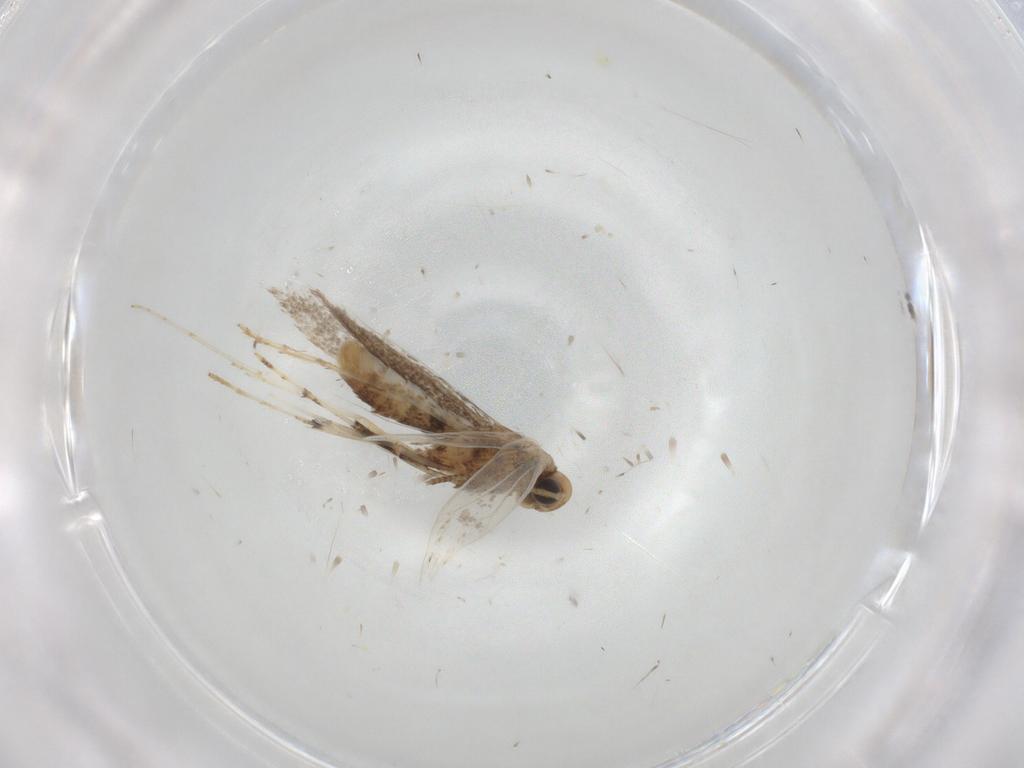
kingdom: Animalia
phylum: Arthropoda
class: Insecta
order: Lepidoptera
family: Gracillariidae
